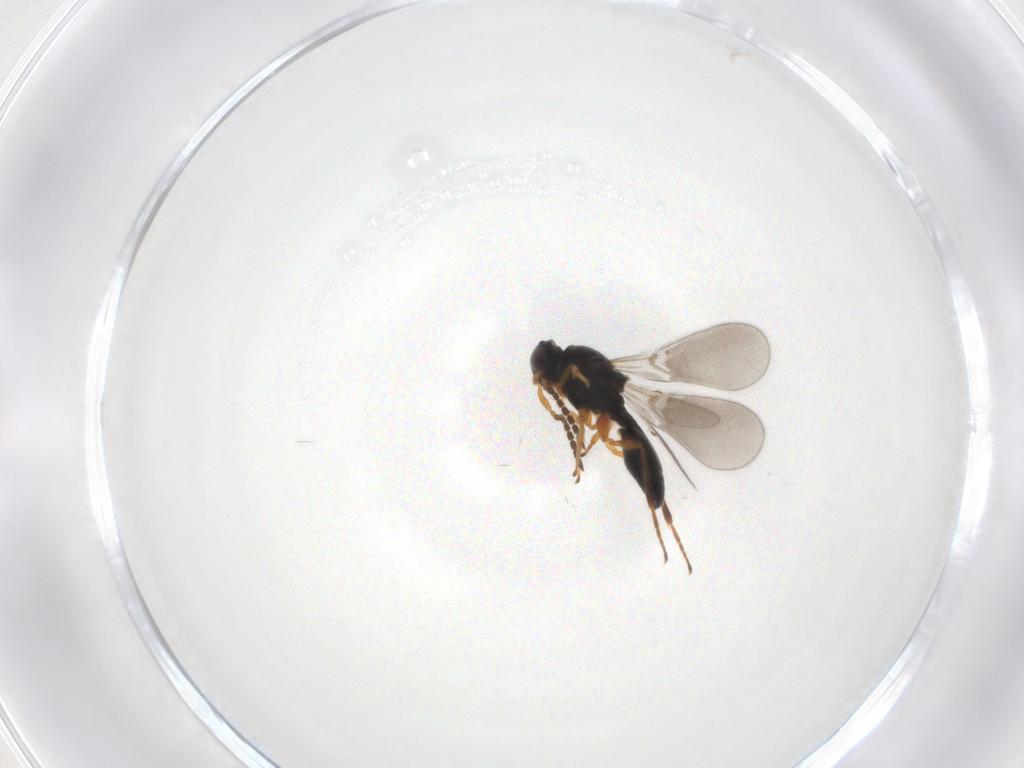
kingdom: Animalia
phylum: Arthropoda
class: Insecta
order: Hymenoptera
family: Platygastridae
